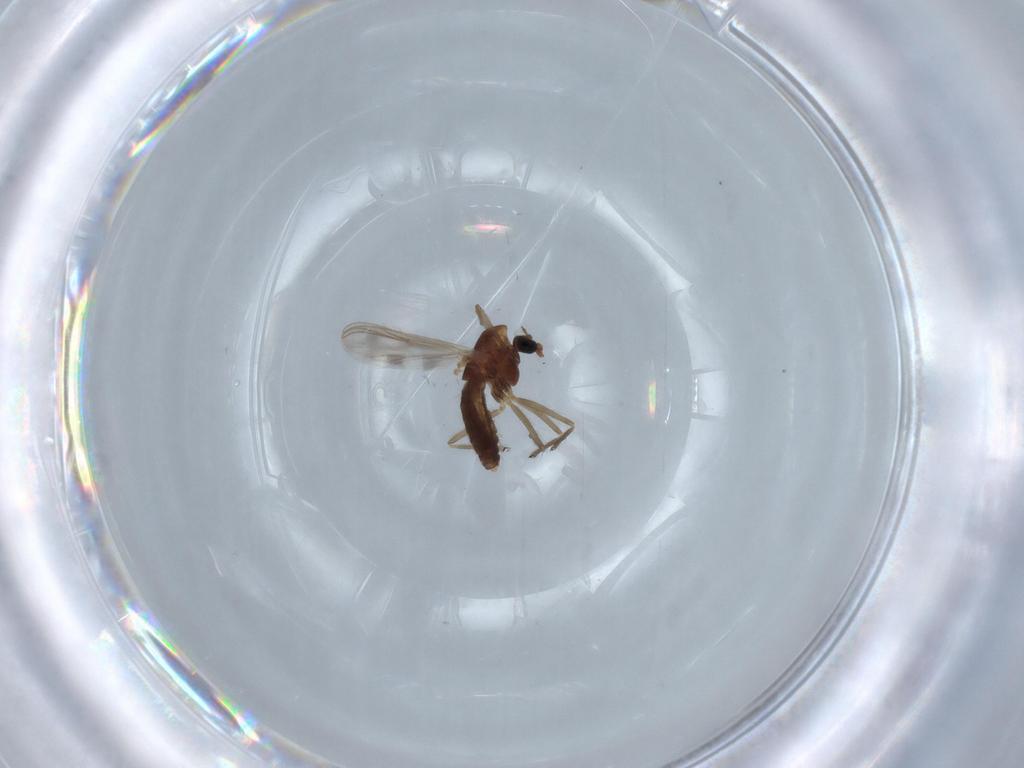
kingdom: Animalia
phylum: Arthropoda
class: Insecta
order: Diptera
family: Chironomidae
